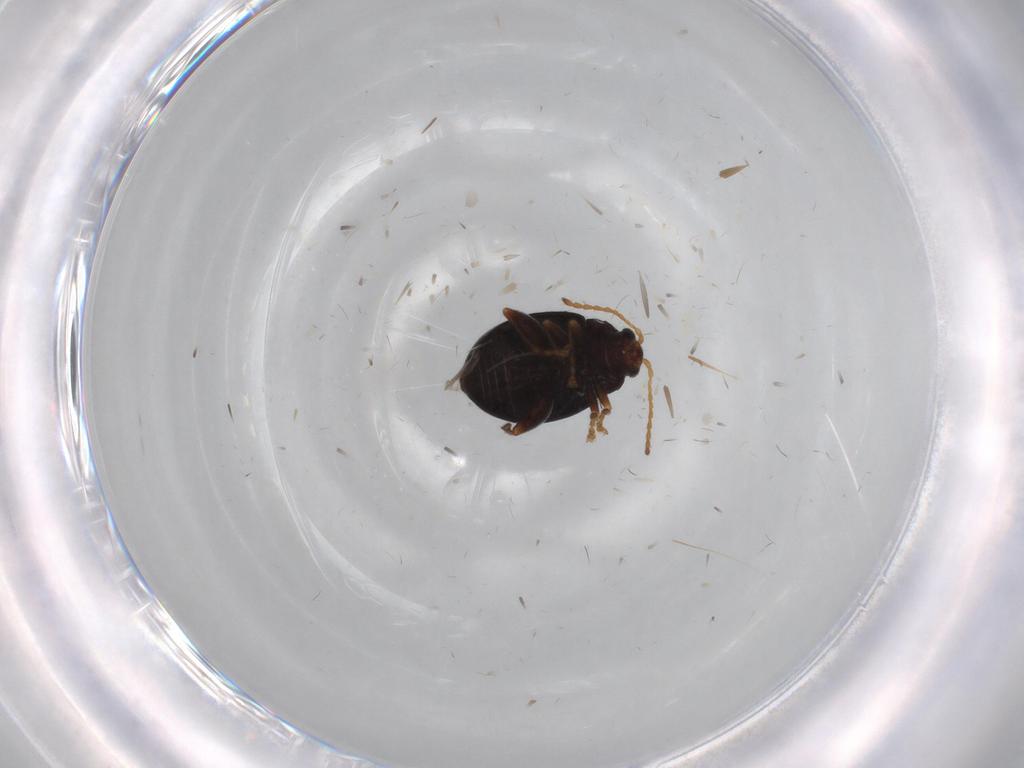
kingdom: Animalia
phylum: Arthropoda
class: Insecta
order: Coleoptera
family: Chrysomelidae
